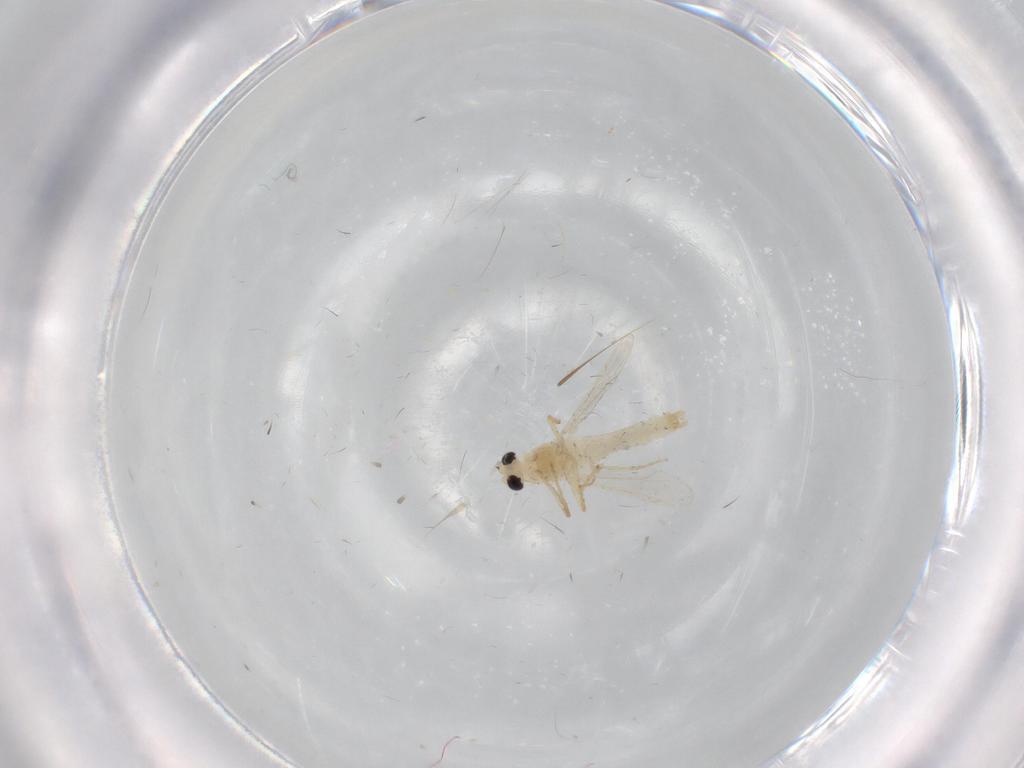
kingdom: Animalia
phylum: Arthropoda
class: Insecta
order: Diptera
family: Chironomidae
